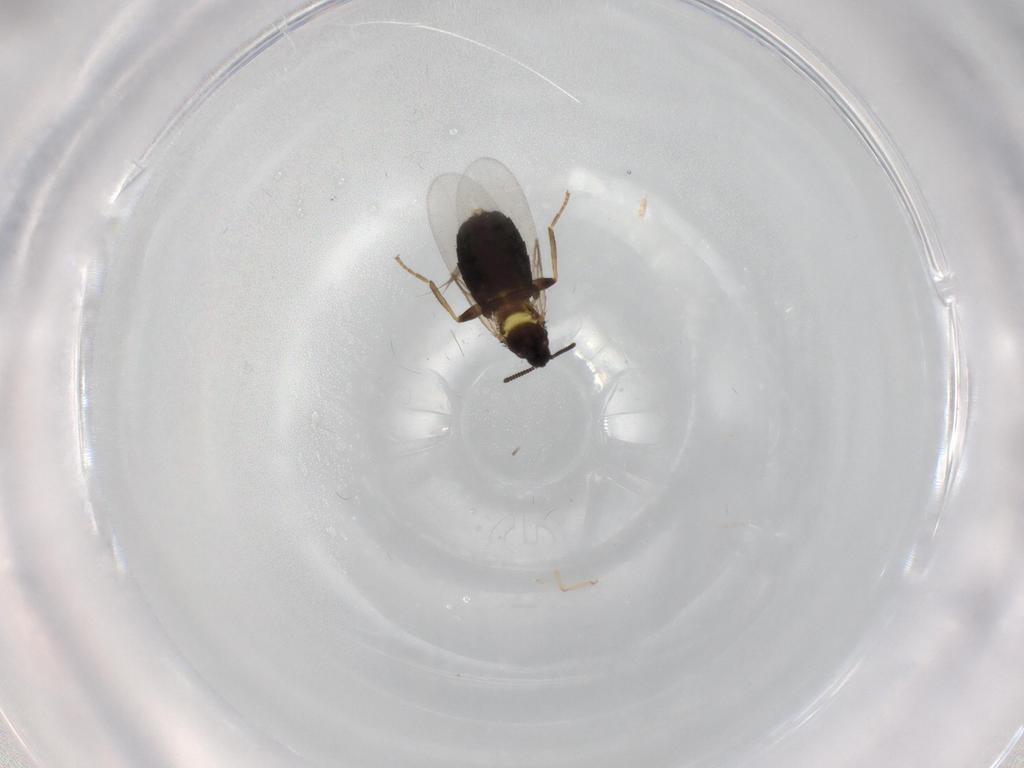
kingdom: Animalia
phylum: Arthropoda
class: Insecta
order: Diptera
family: Scatopsidae
